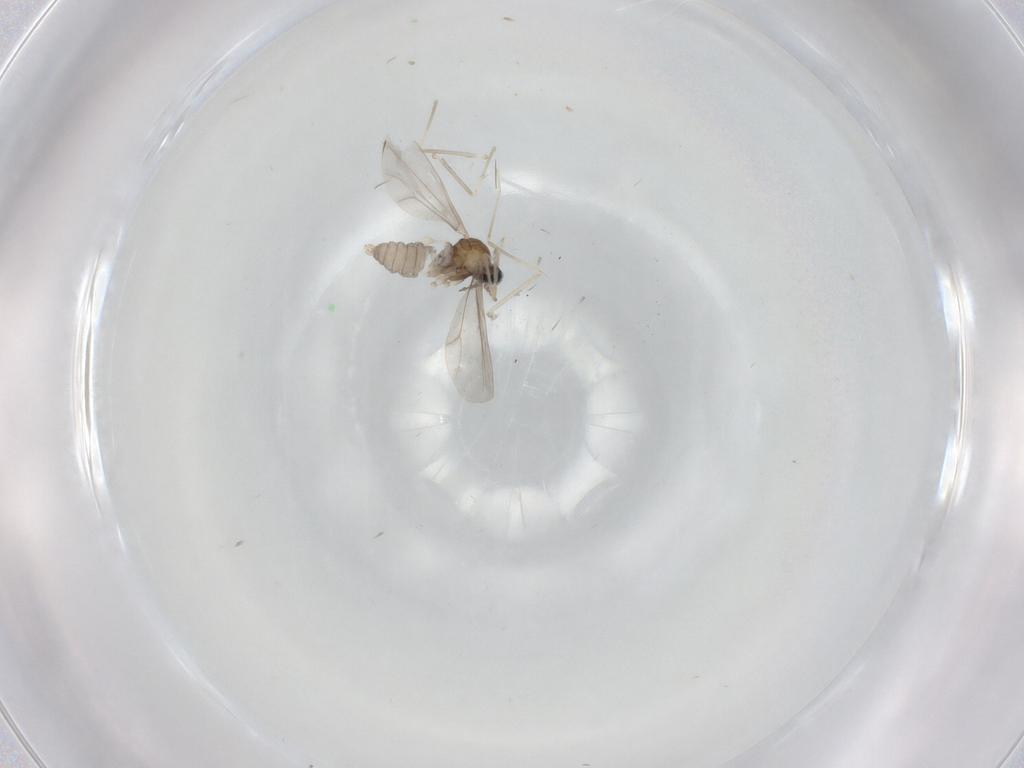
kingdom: Animalia
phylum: Arthropoda
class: Insecta
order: Diptera
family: Cecidomyiidae
